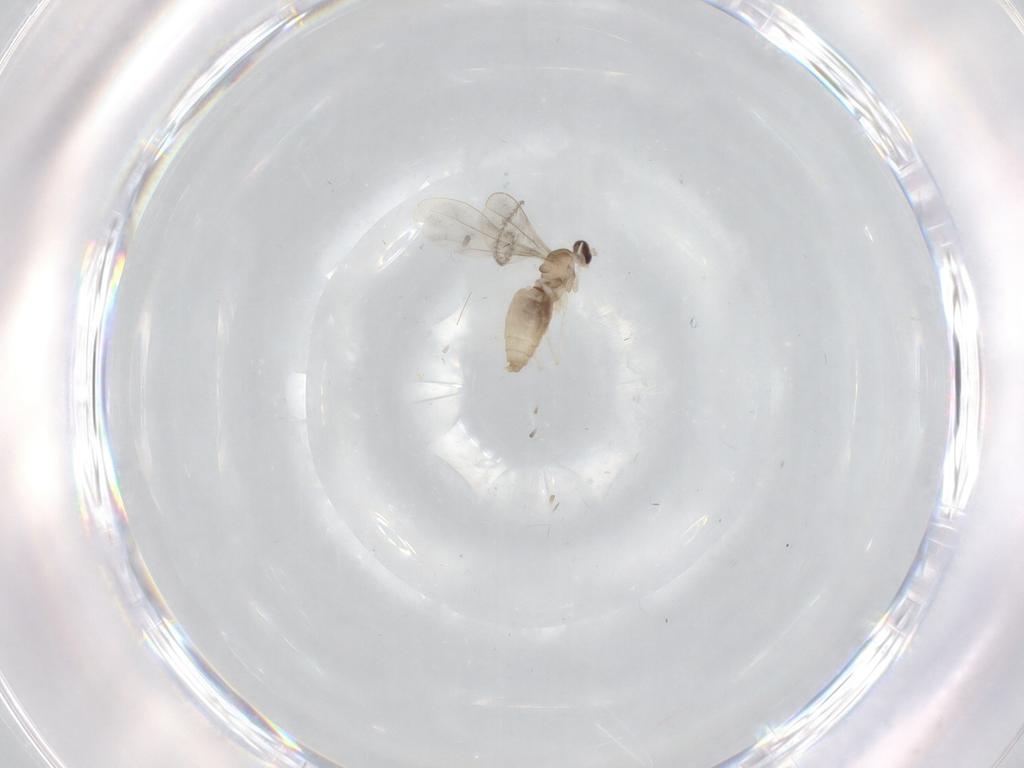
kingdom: Animalia
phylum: Arthropoda
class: Insecta
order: Diptera
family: Cecidomyiidae
